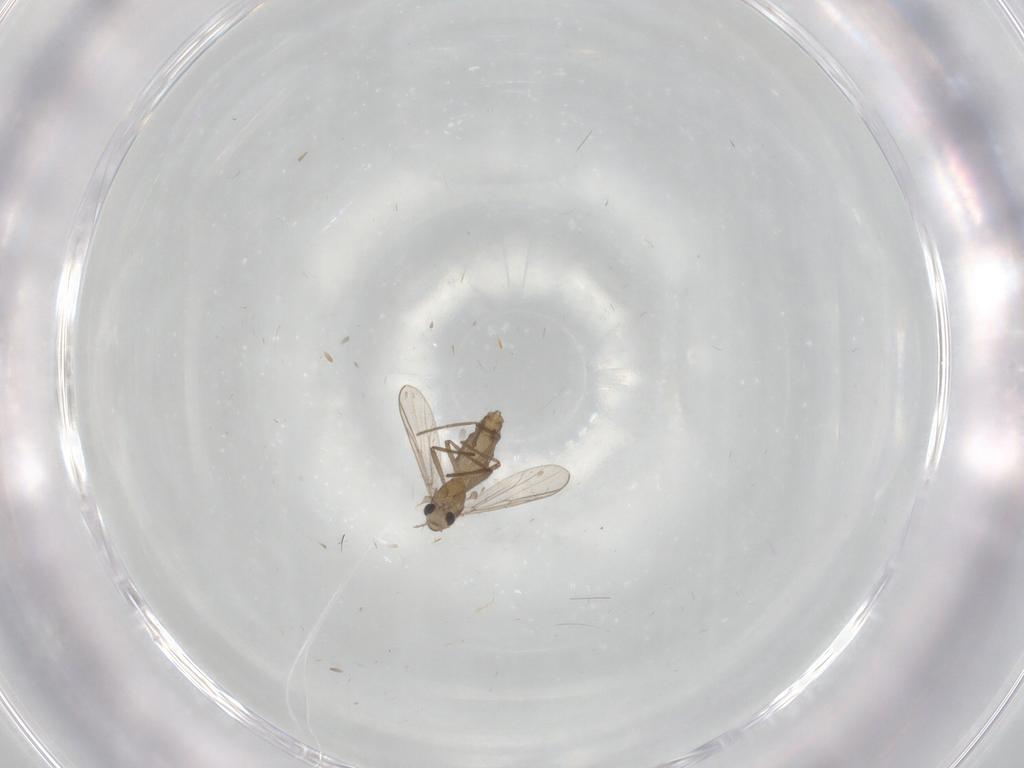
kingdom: Animalia
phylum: Arthropoda
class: Insecta
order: Diptera
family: Chironomidae
